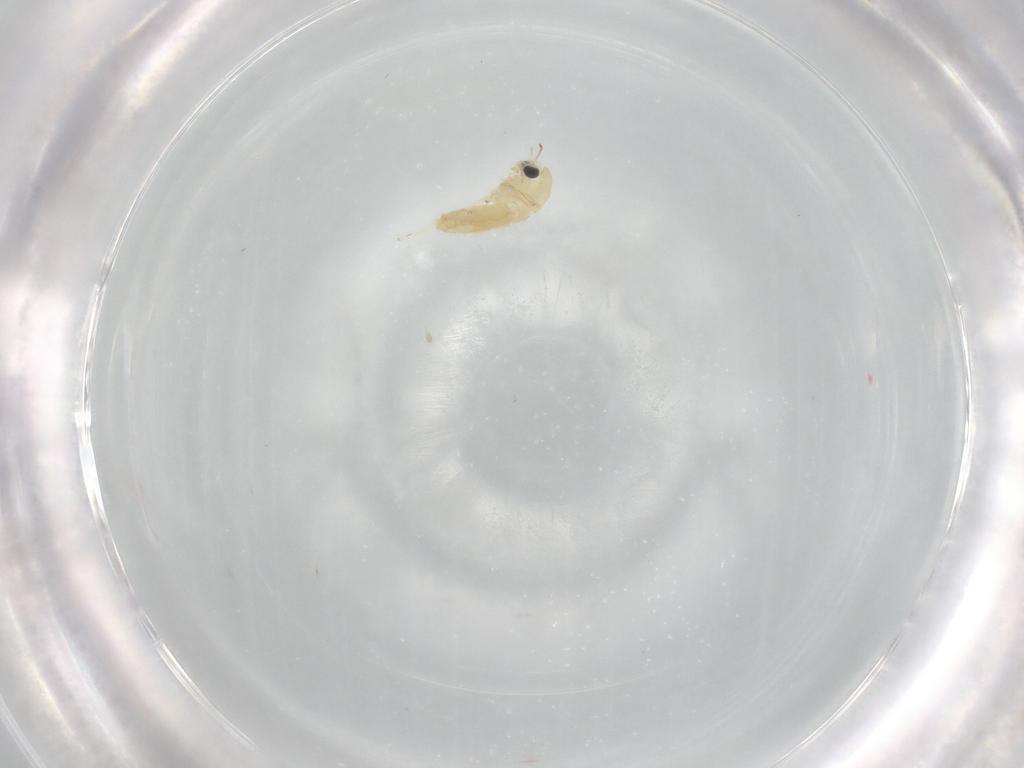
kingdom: Animalia
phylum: Arthropoda
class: Insecta
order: Diptera
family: Chironomidae
